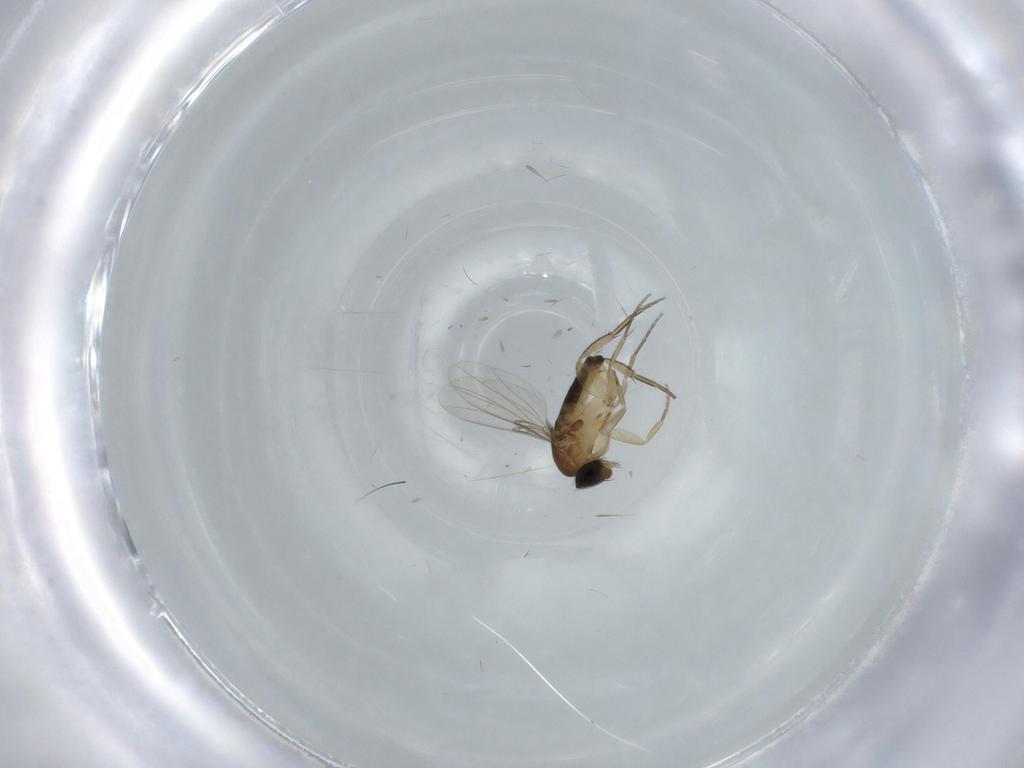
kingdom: Animalia
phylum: Arthropoda
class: Insecta
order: Diptera
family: Phoridae
